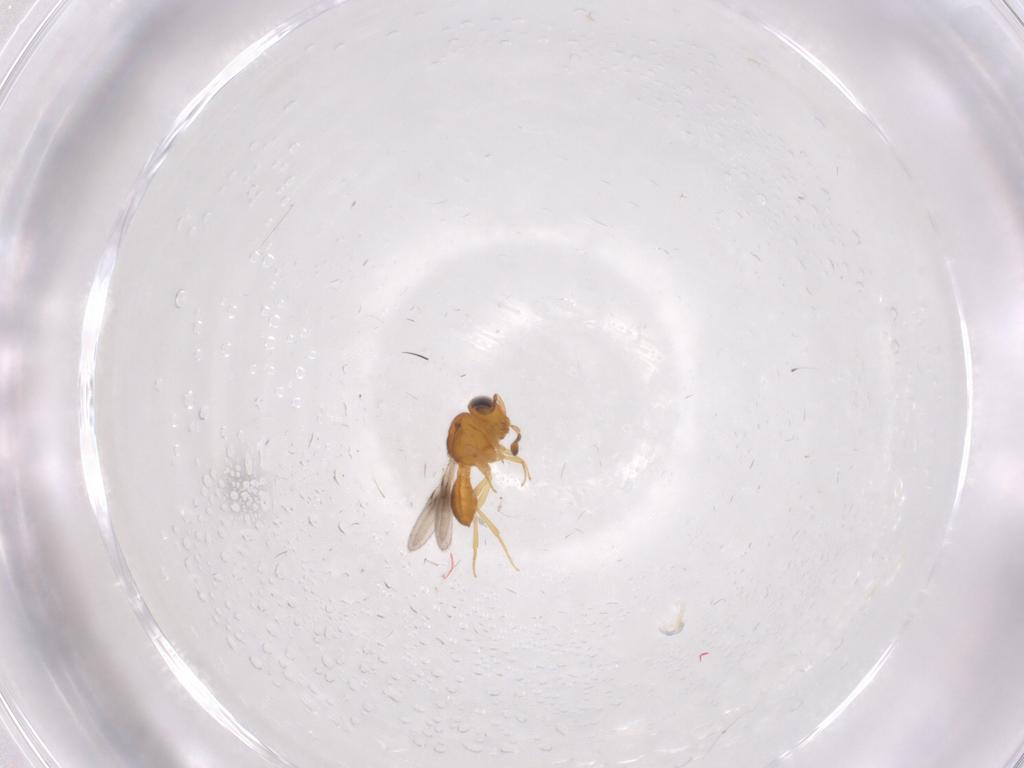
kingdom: Animalia
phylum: Arthropoda
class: Insecta
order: Hymenoptera
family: Scelionidae
